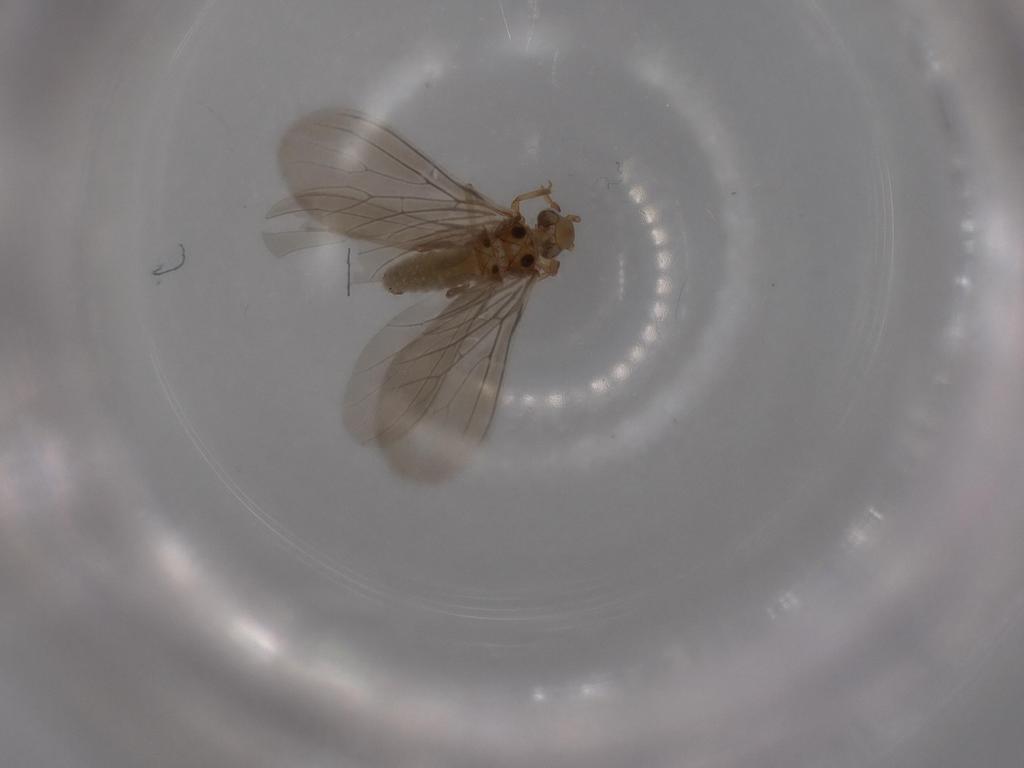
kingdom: Animalia
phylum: Arthropoda
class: Insecta
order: Neuroptera
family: Coniopterygidae
